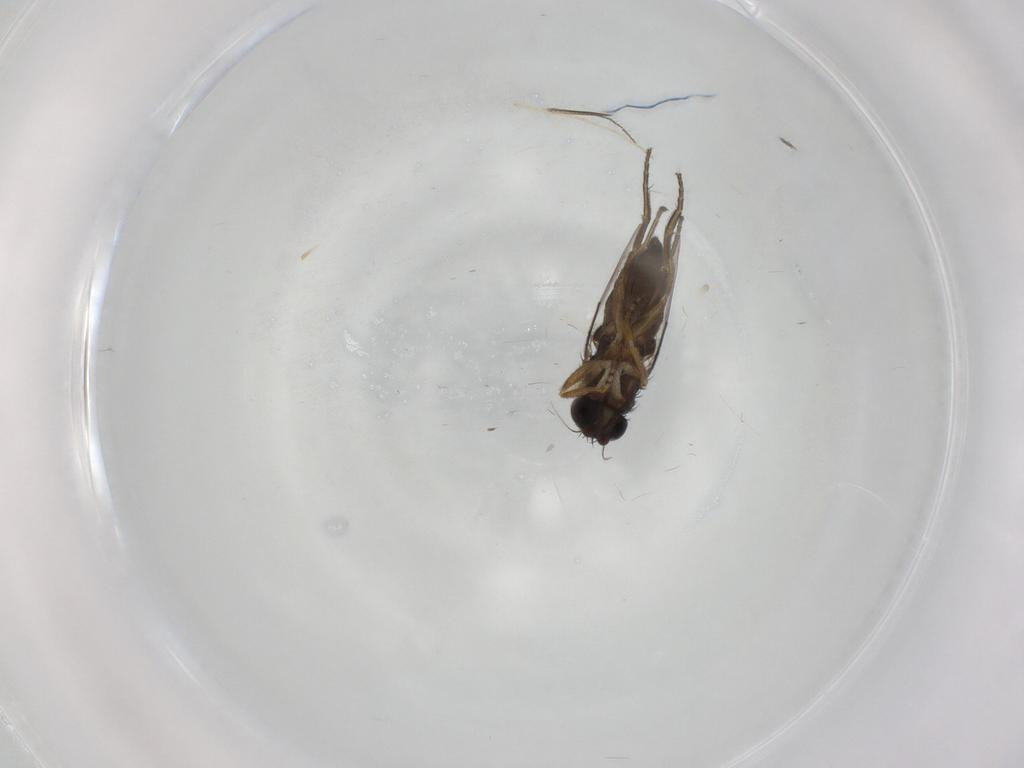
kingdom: Animalia
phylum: Arthropoda
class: Insecta
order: Diptera
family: Phoridae
